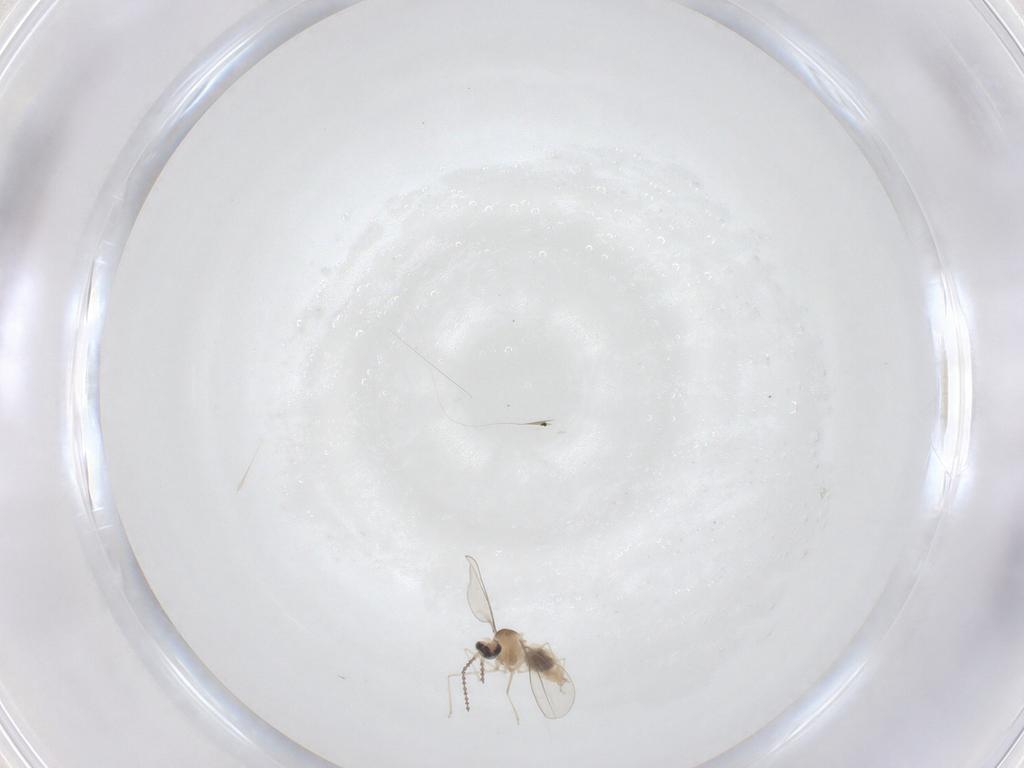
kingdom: Animalia
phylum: Arthropoda
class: Insecta
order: Diptera
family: Cecidomyiidae
